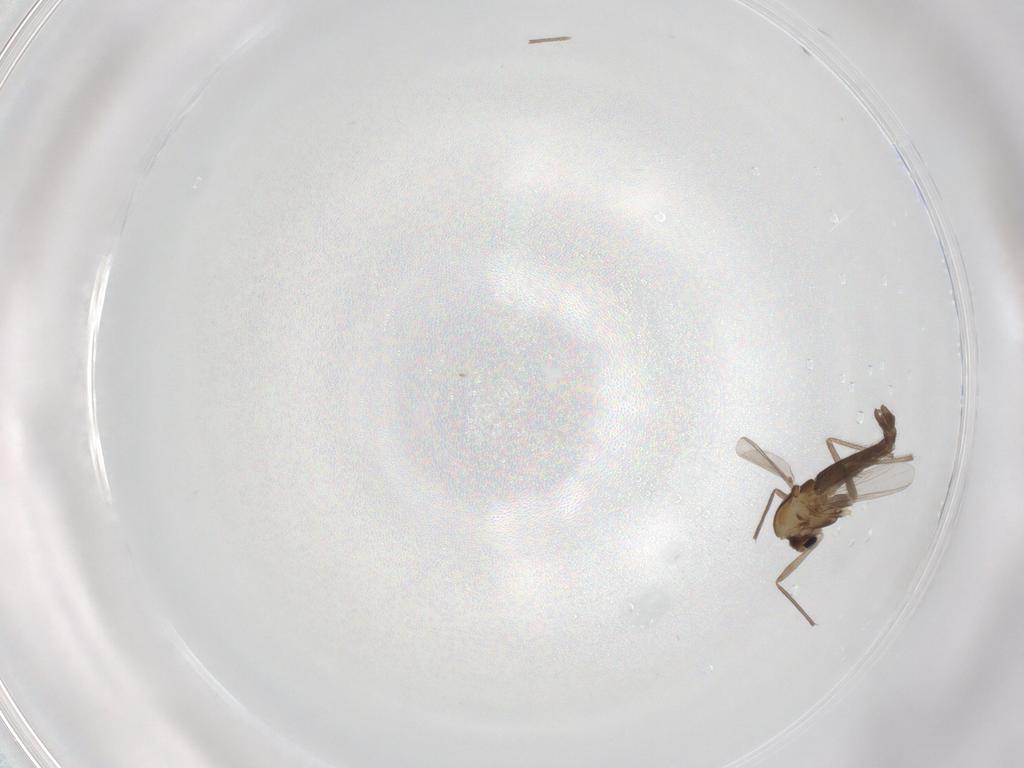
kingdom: Animalia
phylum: Arthropoda
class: Insecta
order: Diptera
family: Chironomidae
